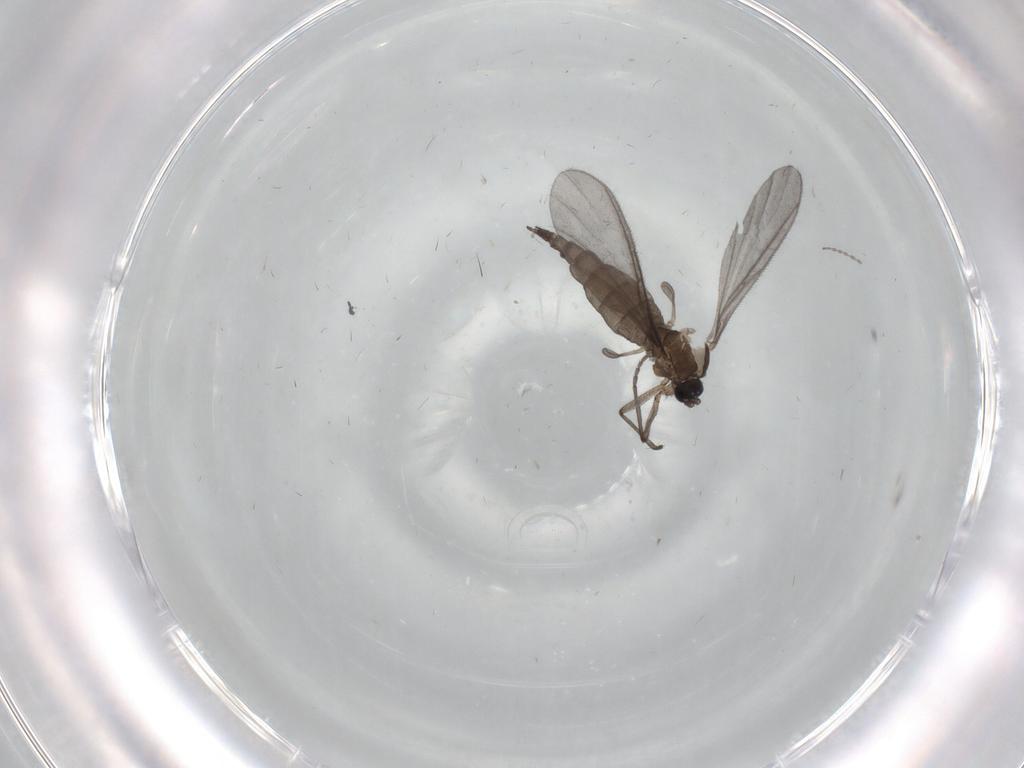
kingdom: Animalia
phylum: Arthropoda
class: Insecta
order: Diptera
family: Sciaridae
